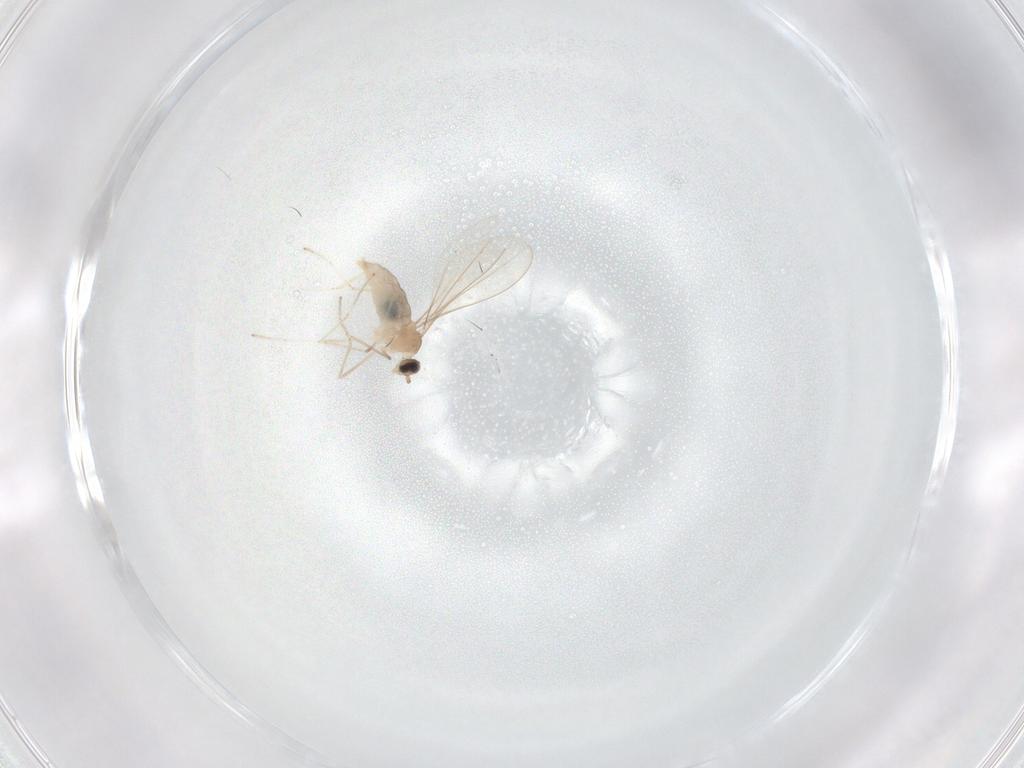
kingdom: Animalia
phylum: Arthropoda
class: Insecta
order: Diptera
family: Cecidomyiidae
